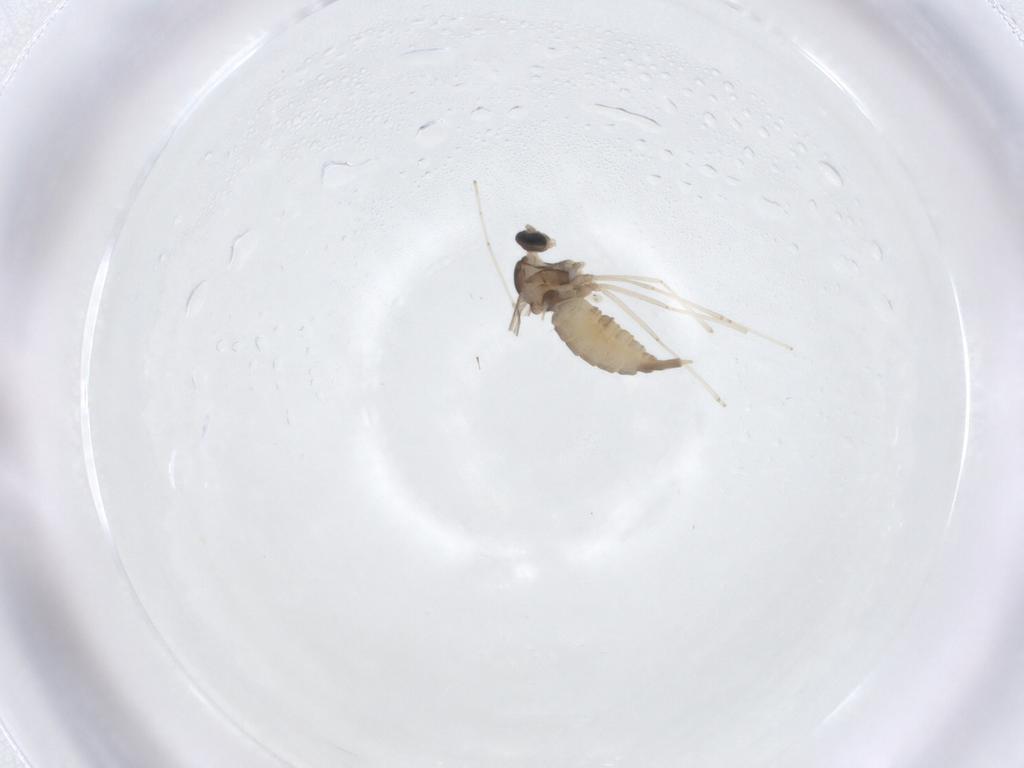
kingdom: Animalia
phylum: Arthropoda
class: Insecta
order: Diptera
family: Cecidomyiidae
